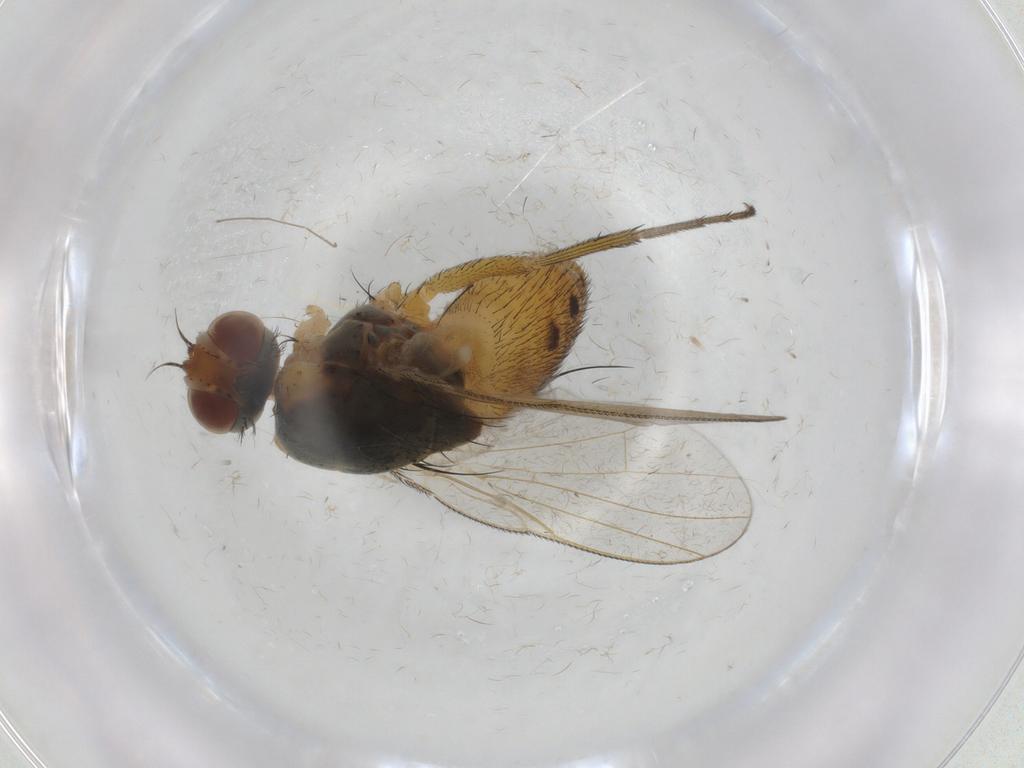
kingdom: Animalia
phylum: Arthropoda
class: Insecta
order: Diptera
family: Muscidae
